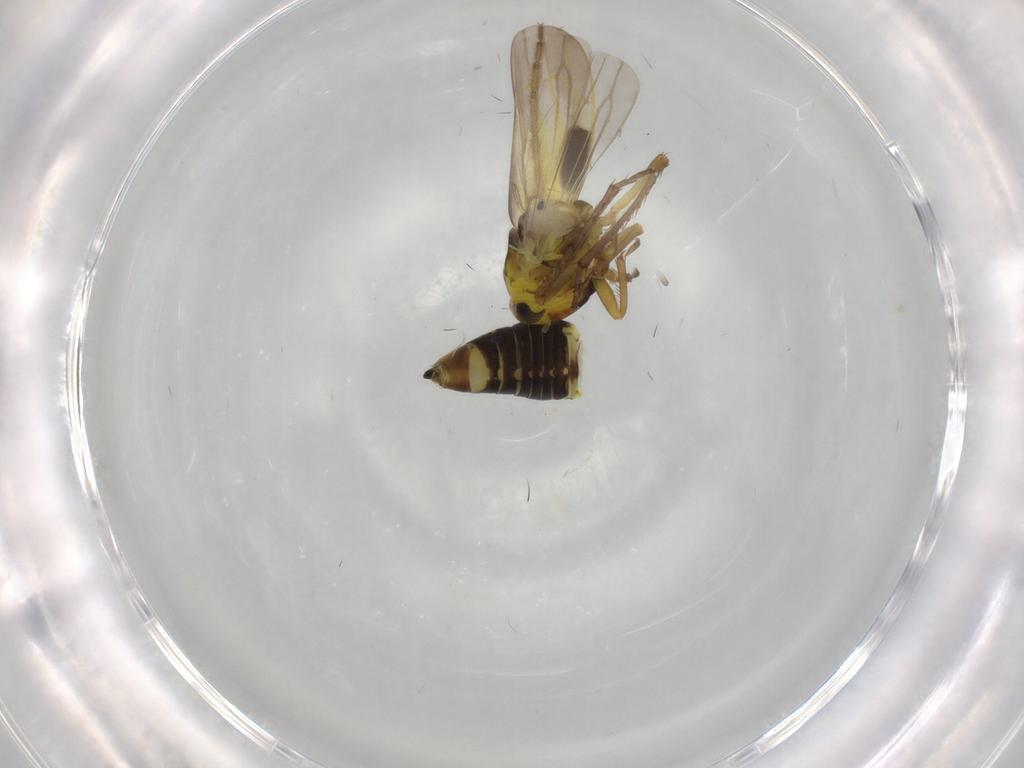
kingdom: Animalia
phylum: Arthropoda
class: Insecta
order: Hemiptera
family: Cicadellidae
